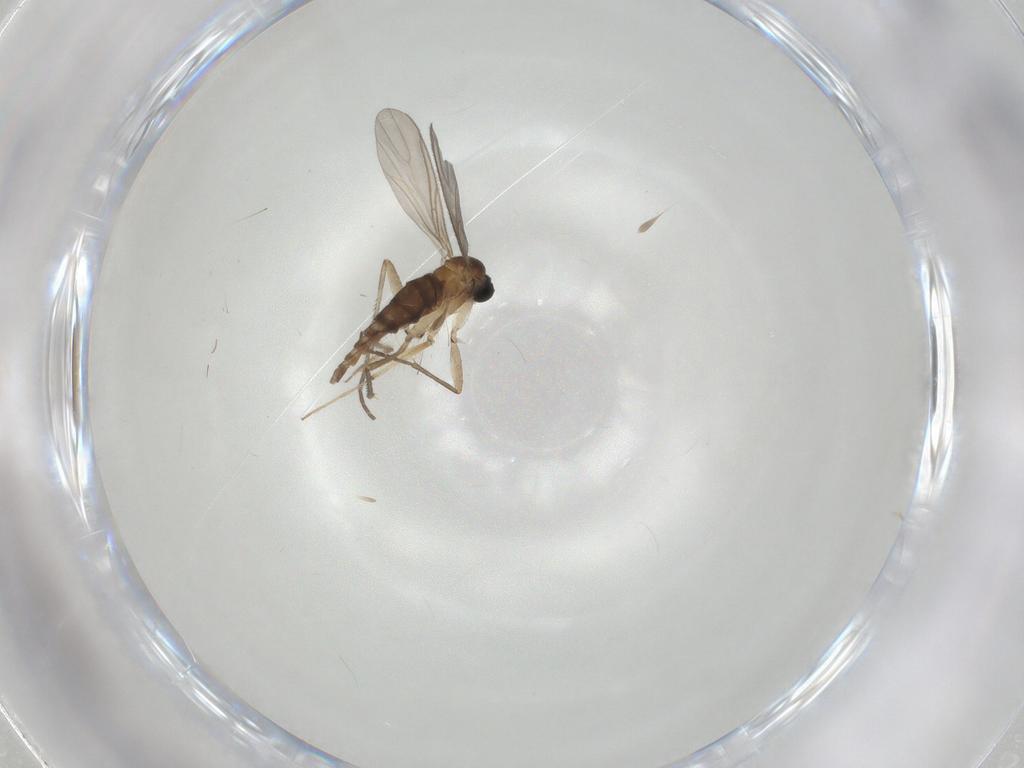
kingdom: Animalia
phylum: Arthropoda
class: Insecta
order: Diptera
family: Sciaridae
